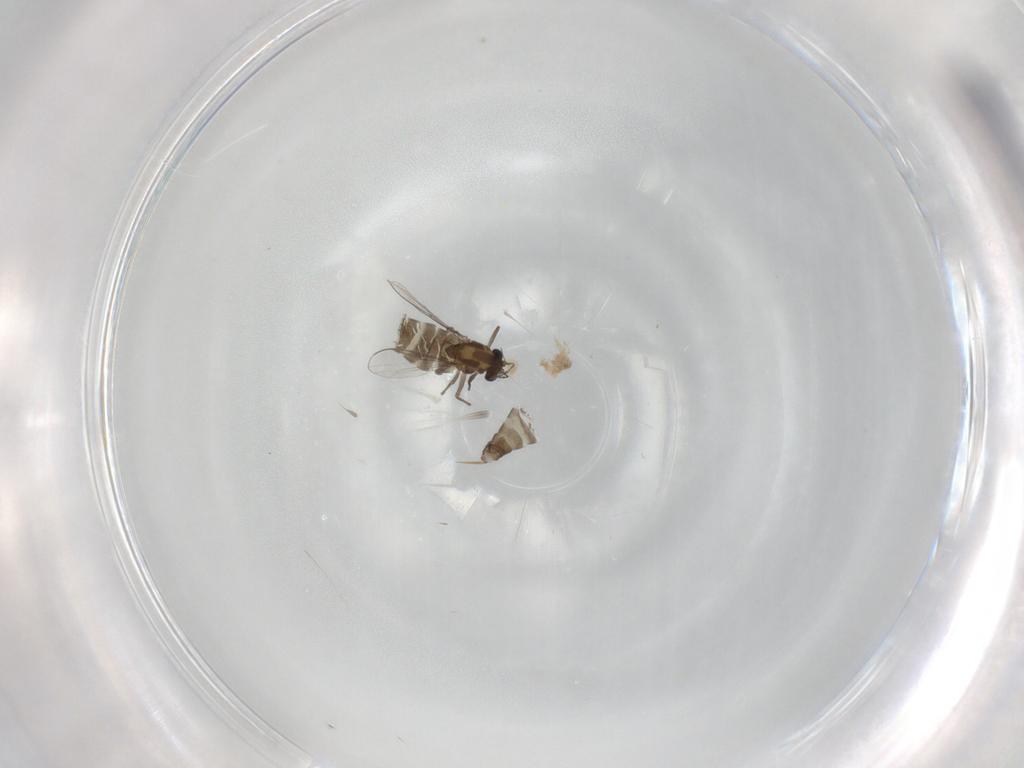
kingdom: Animalia
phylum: Arthropoda
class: Insecta
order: Diptera
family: Chironomidae
